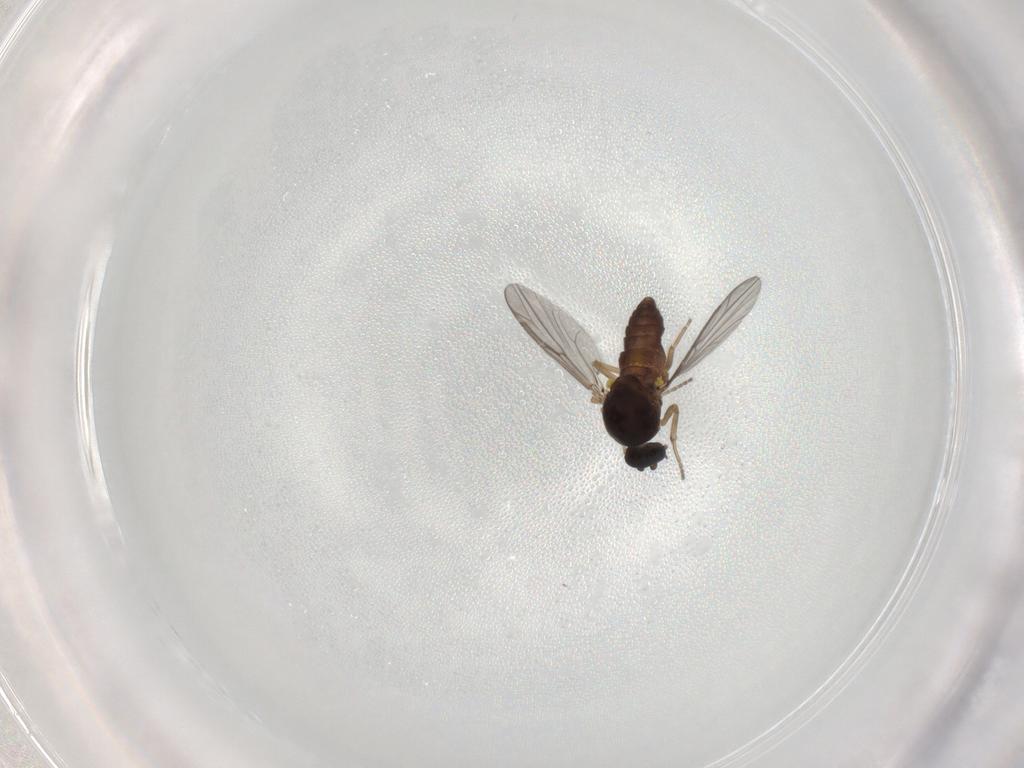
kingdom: Animalia
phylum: Arthropoda
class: Insecta
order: Diptera
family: Ceratopogonidae
